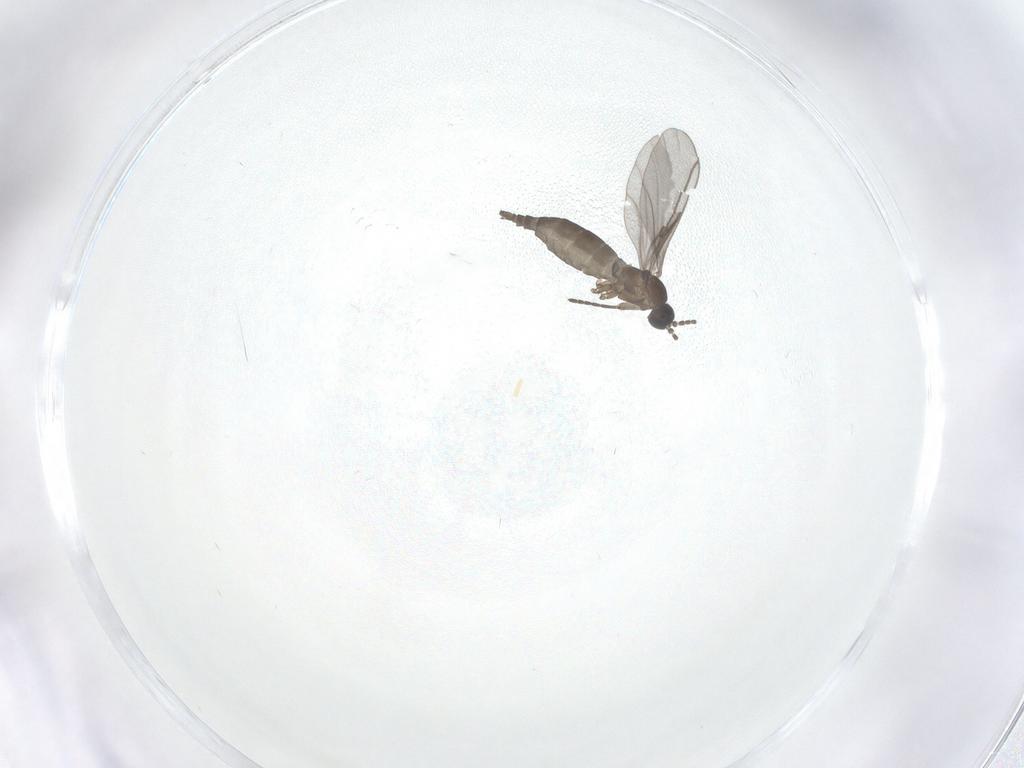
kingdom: Animalia
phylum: Arthropoda
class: Insecta
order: Diptera
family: Sciaridae
